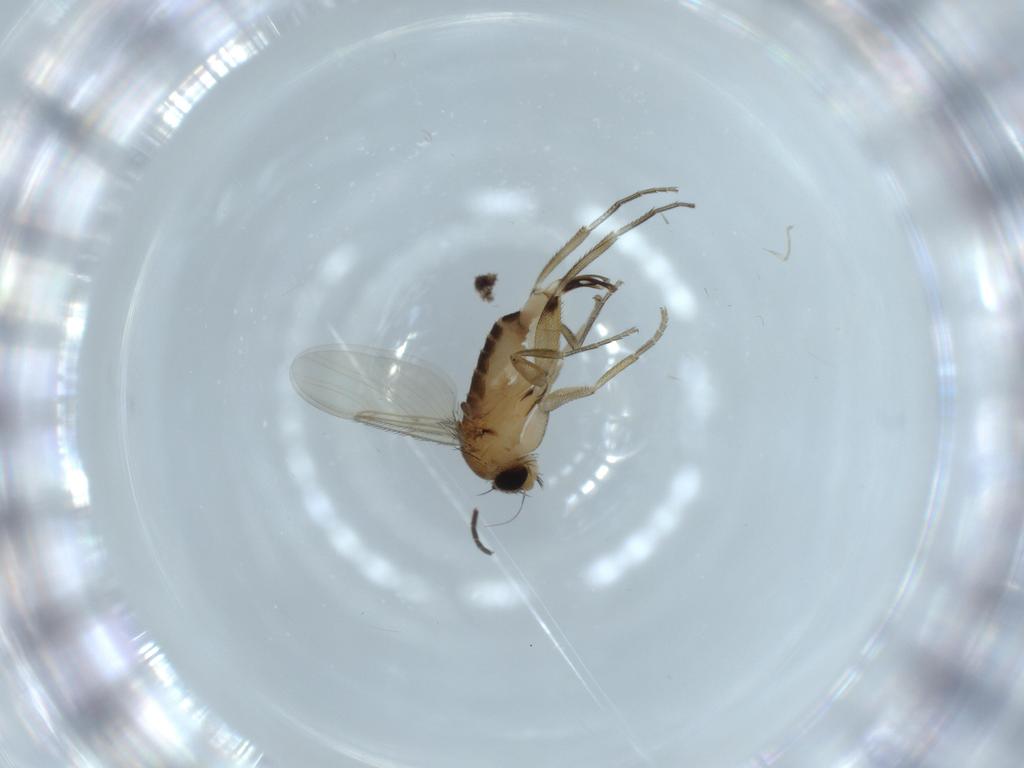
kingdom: Animalia
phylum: Arthropoda
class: Insecta
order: Diptera
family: Phoridae
